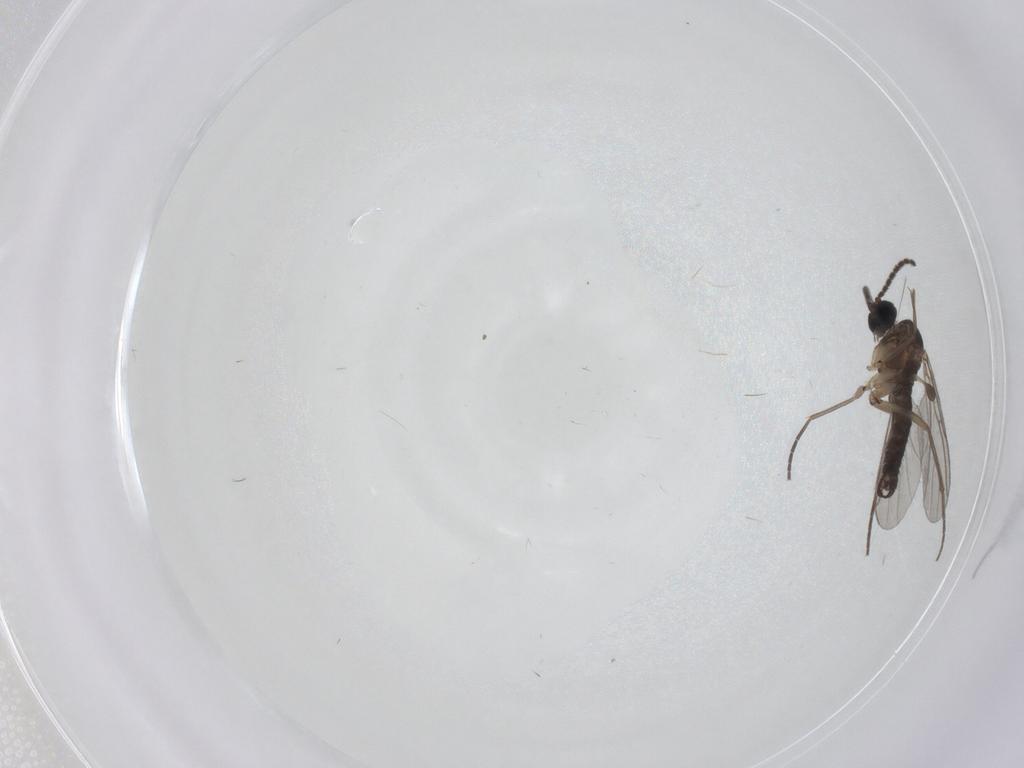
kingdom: Animalia
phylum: Arthropoda
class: Insecta
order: Diptera
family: Sciaridae
